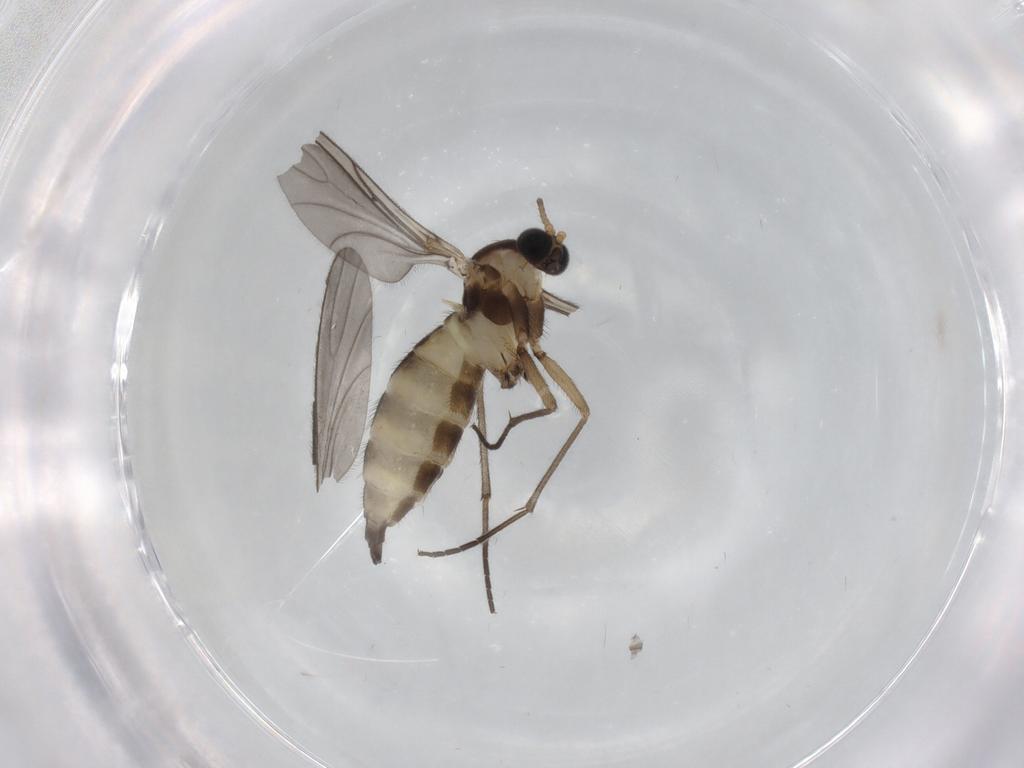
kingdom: Animalia
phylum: Arthropoda
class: Insecta
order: Diptera
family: Sciaridae
